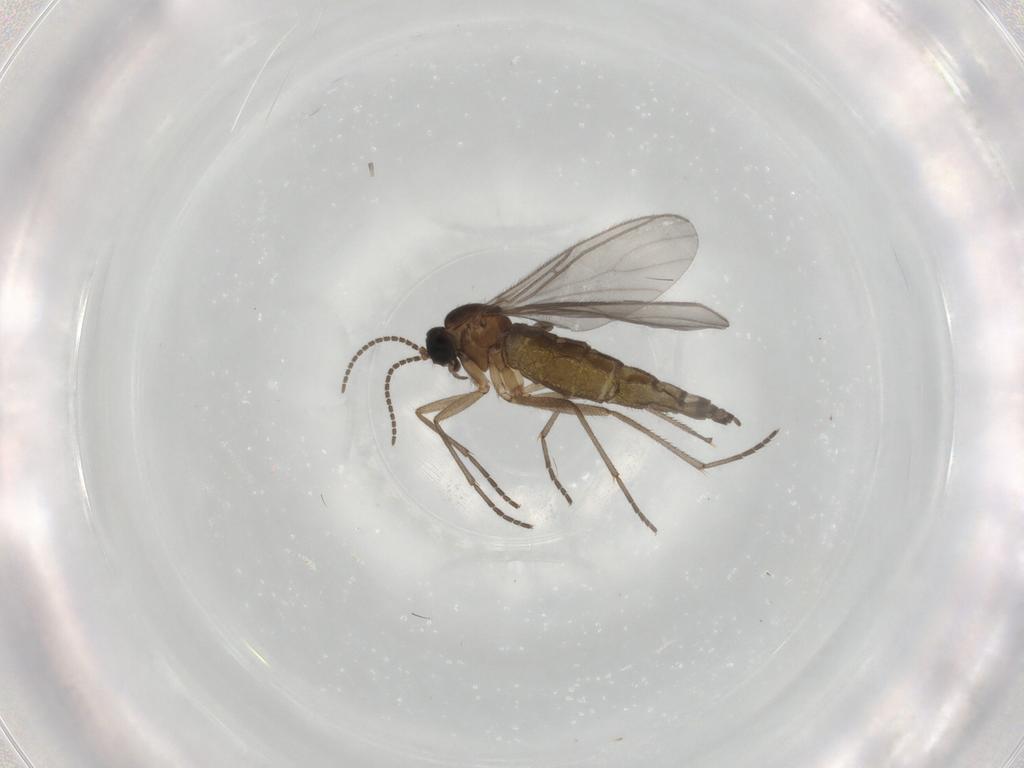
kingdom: Animalia
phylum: Arthropoda
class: Insecta
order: Diptera
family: Sciaridae
